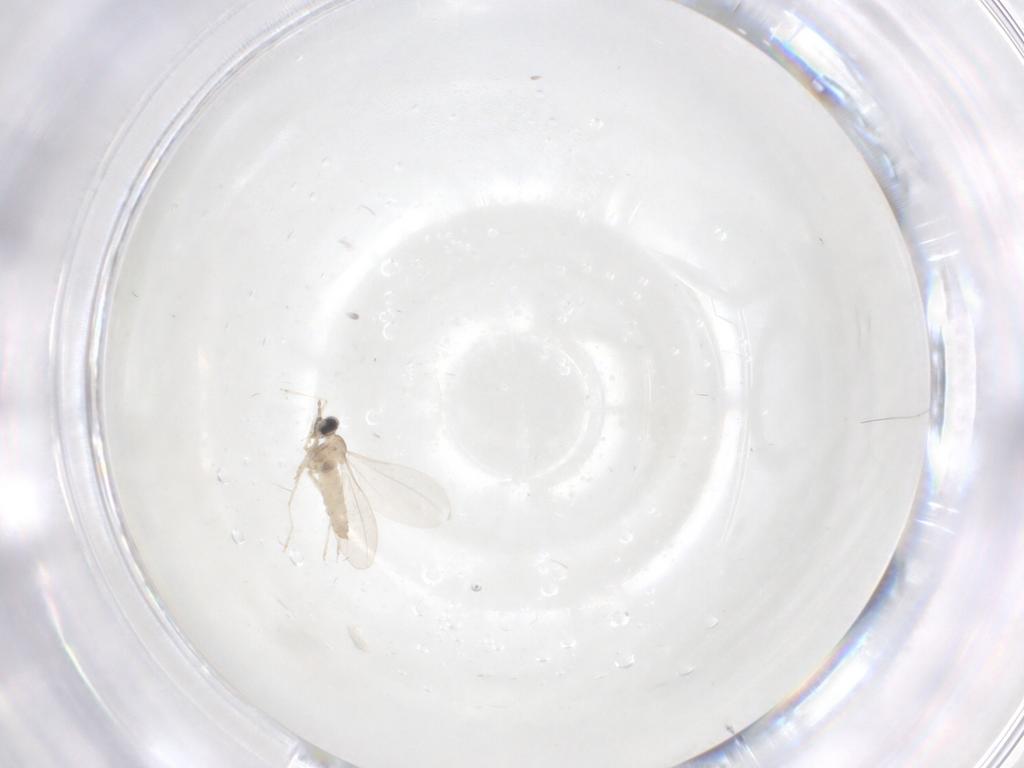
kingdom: Animalia
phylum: Arthropoda
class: Insecta
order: Diptera
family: Cecidomyiidae
